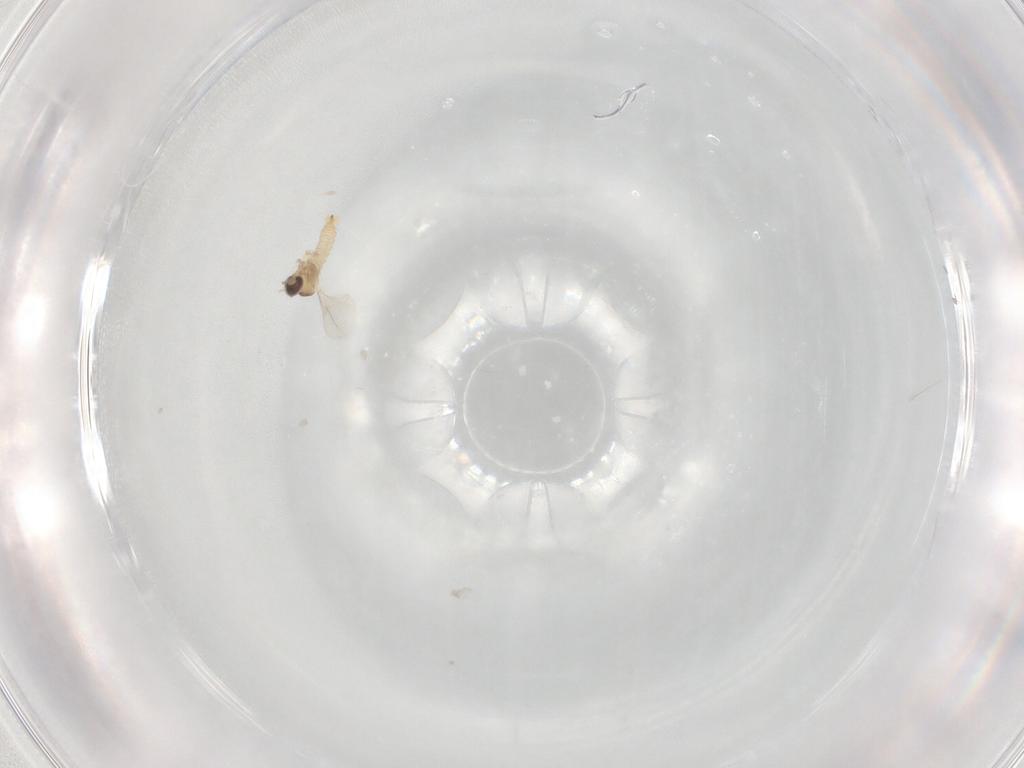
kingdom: Animalia
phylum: Arthropoda
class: Insecta
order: Diptera
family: Cecidomyiidae
